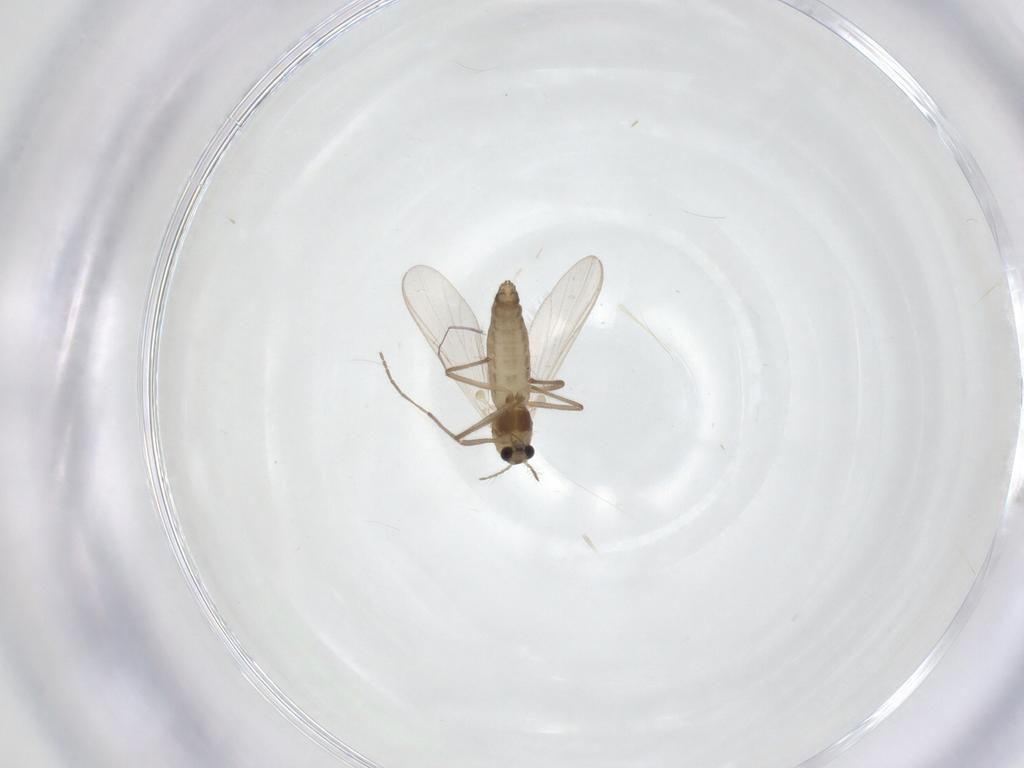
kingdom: Animalia
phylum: Arthropoda
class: Insecta
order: Diptera
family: Chironomidae
